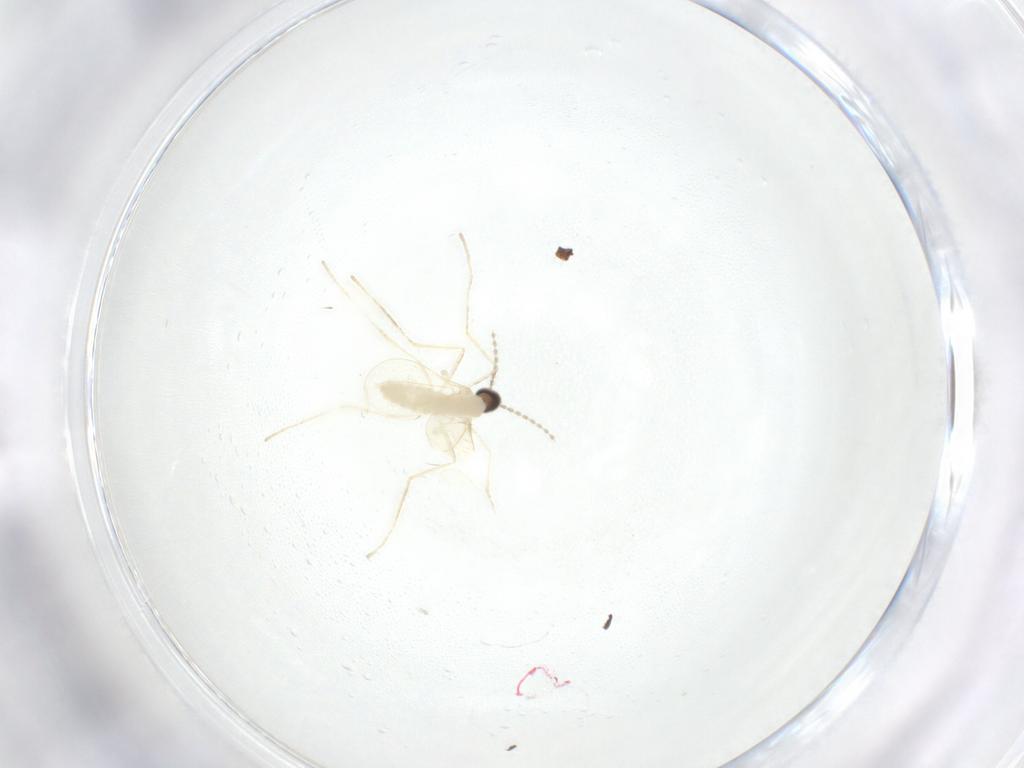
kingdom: Animalia
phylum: Arthropoda
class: Insecta
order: Diptera
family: Cecidomyiidae
